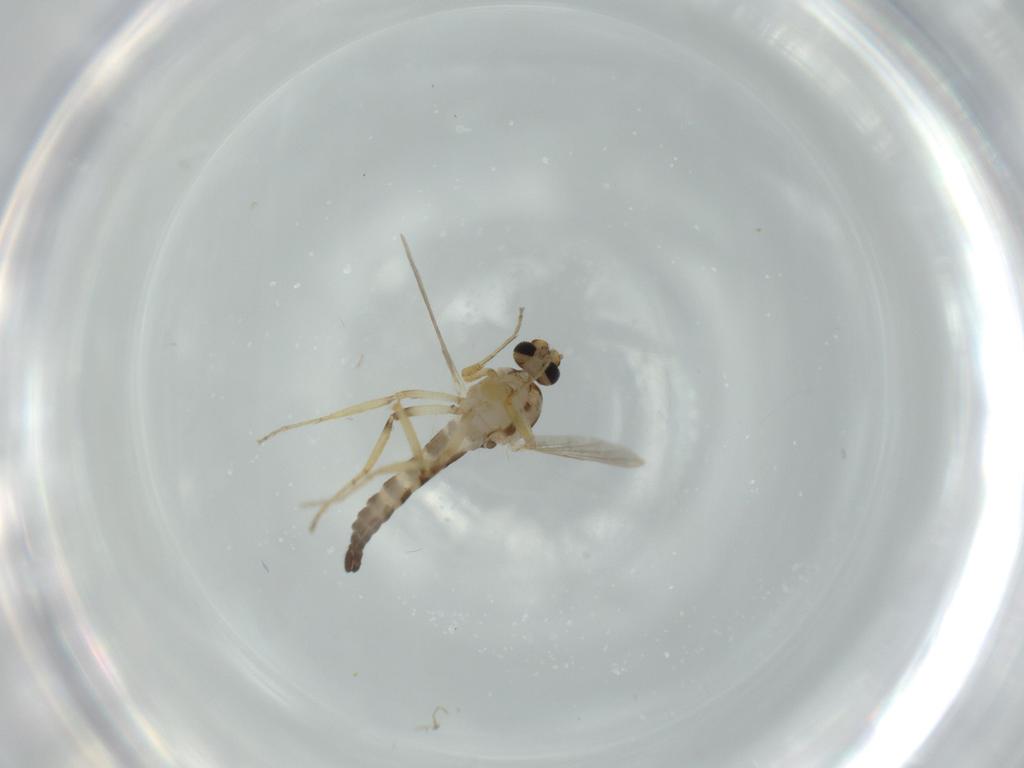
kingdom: Animalia
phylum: Arthropoda
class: Insecta
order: Diptera
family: Ceratopogonidae
